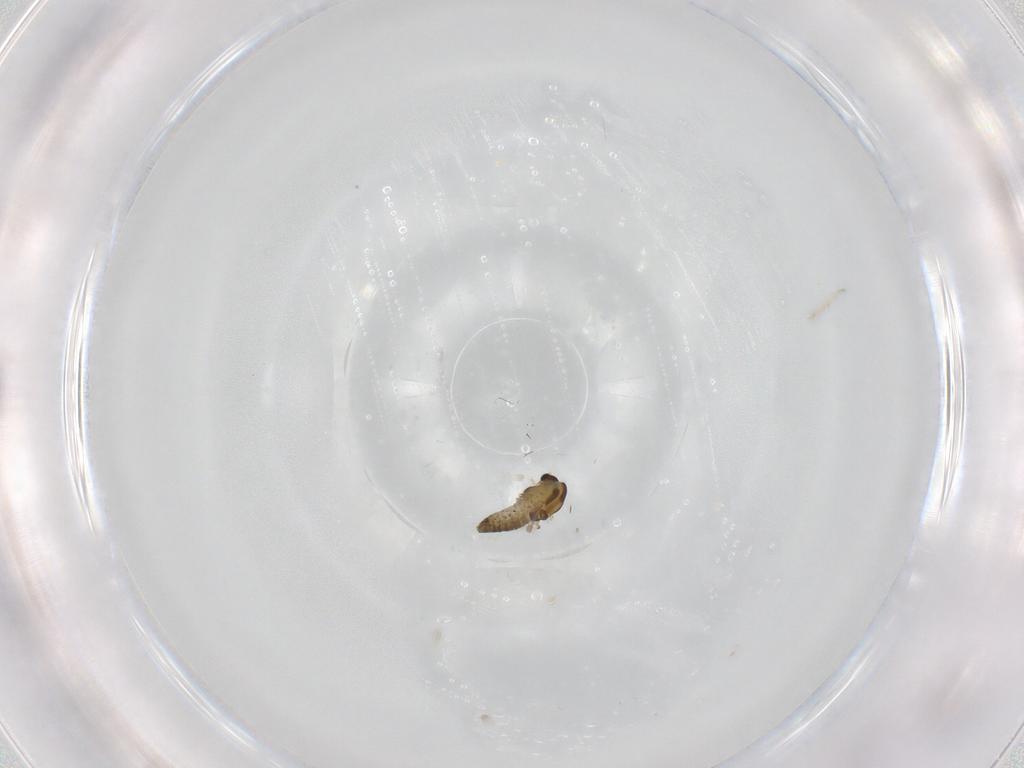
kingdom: Animalia
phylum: Arthropoda
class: Insecta
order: Diptera
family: Chironomidae
